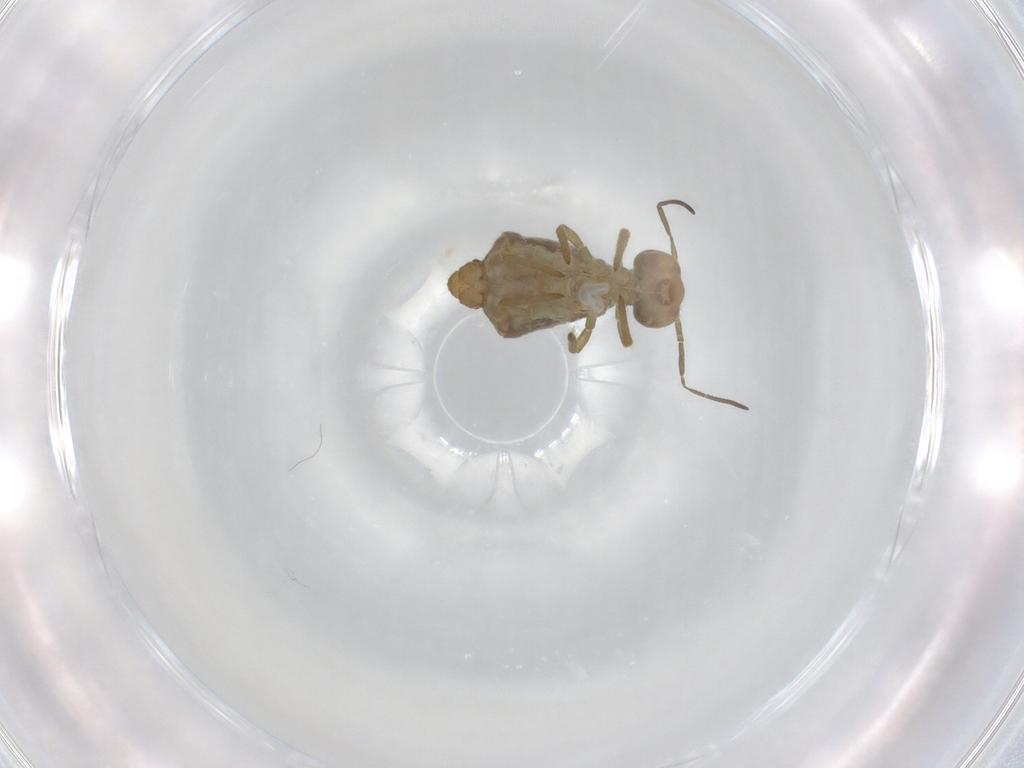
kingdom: Animalia
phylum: Arthropoda
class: Collembola
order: Symphypleona
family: Sminthuridae
